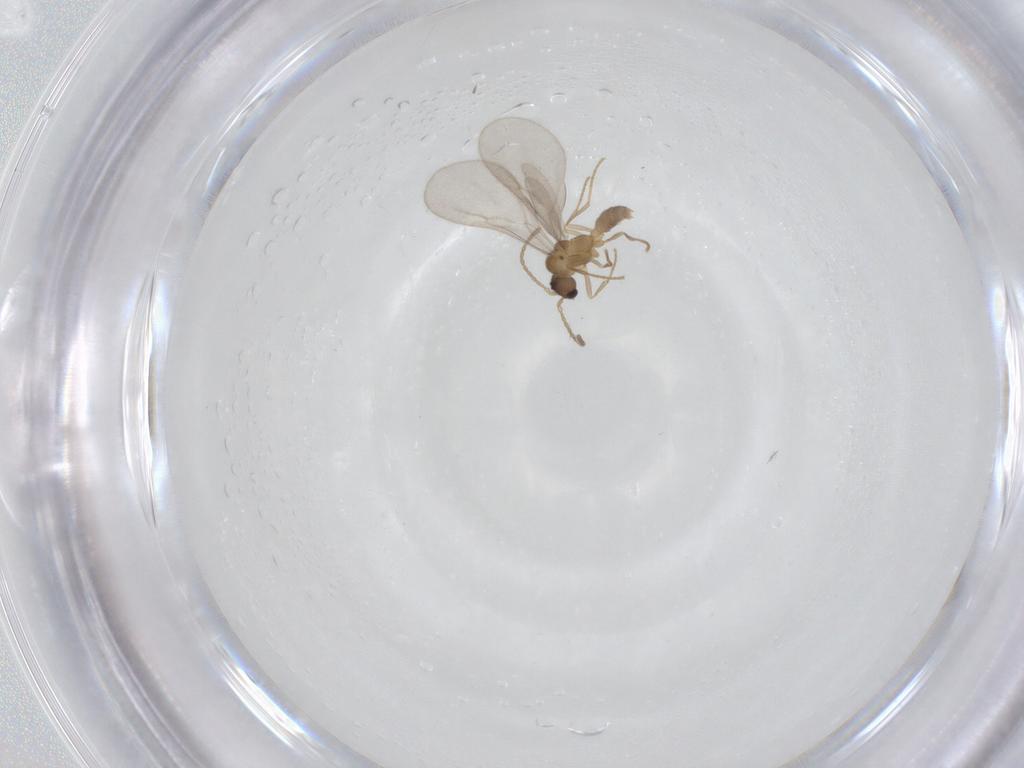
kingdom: Animalia
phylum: Arthropoda
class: Insecta
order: Hymenoptera
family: Formicidae
